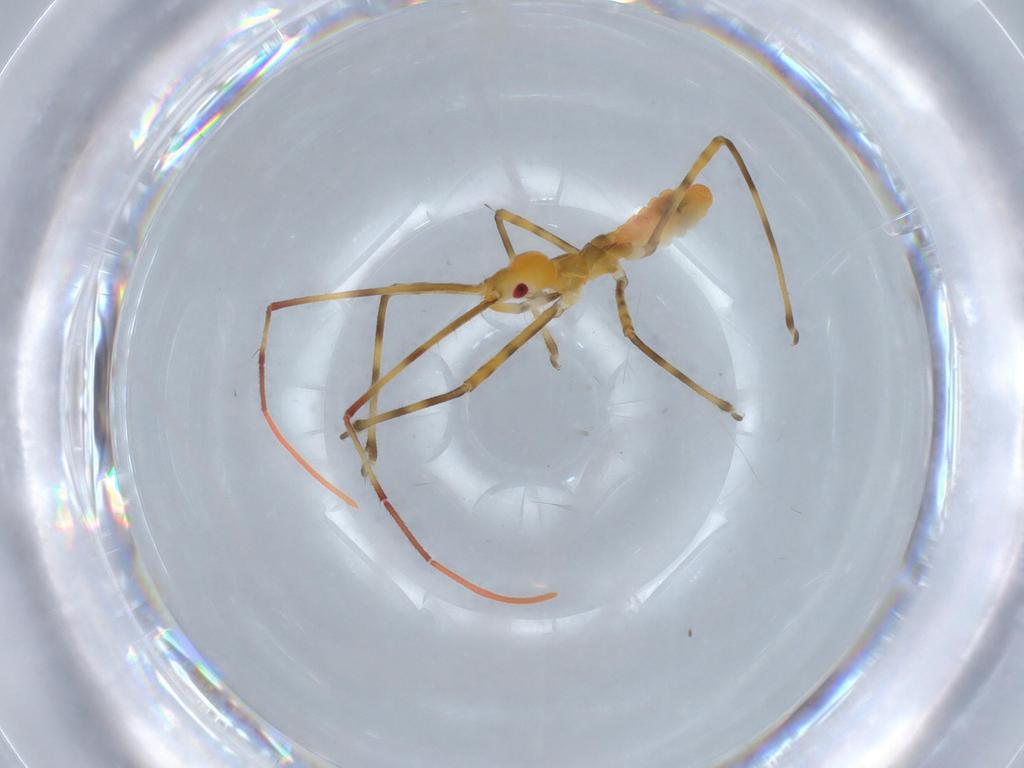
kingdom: Animalia
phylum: Arthropoda
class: Insecta
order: Hemiptera
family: Reduviidae
